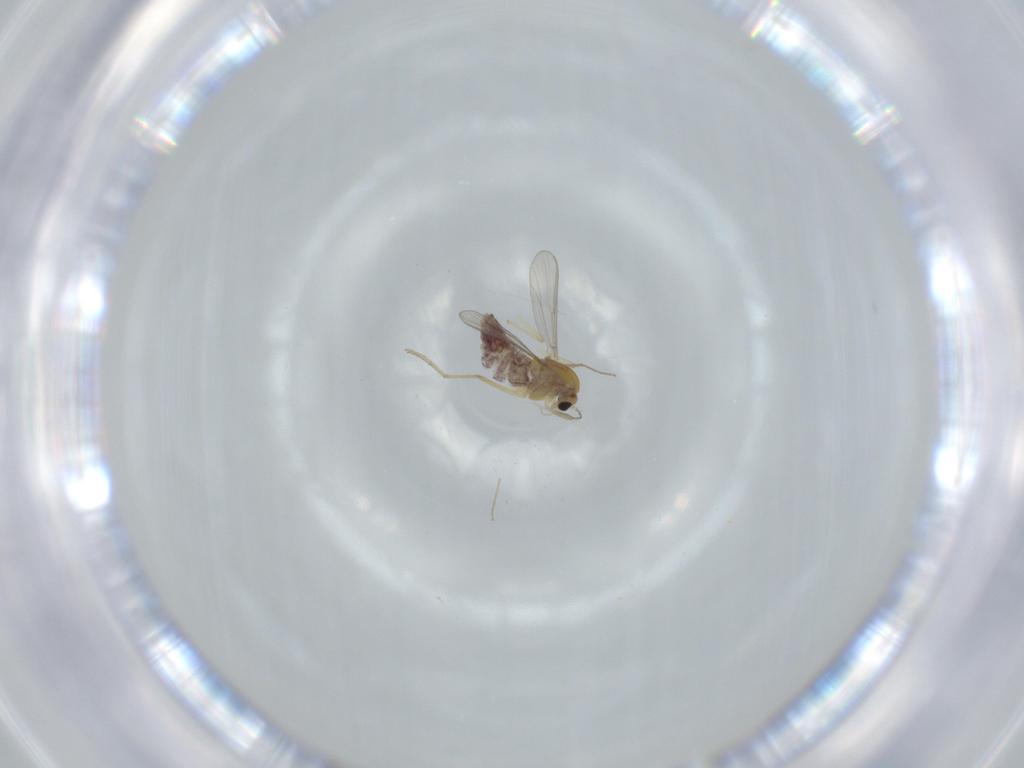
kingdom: Animalia
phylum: Arthropoda
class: Insecta
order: Diptera
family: Chironomidae
